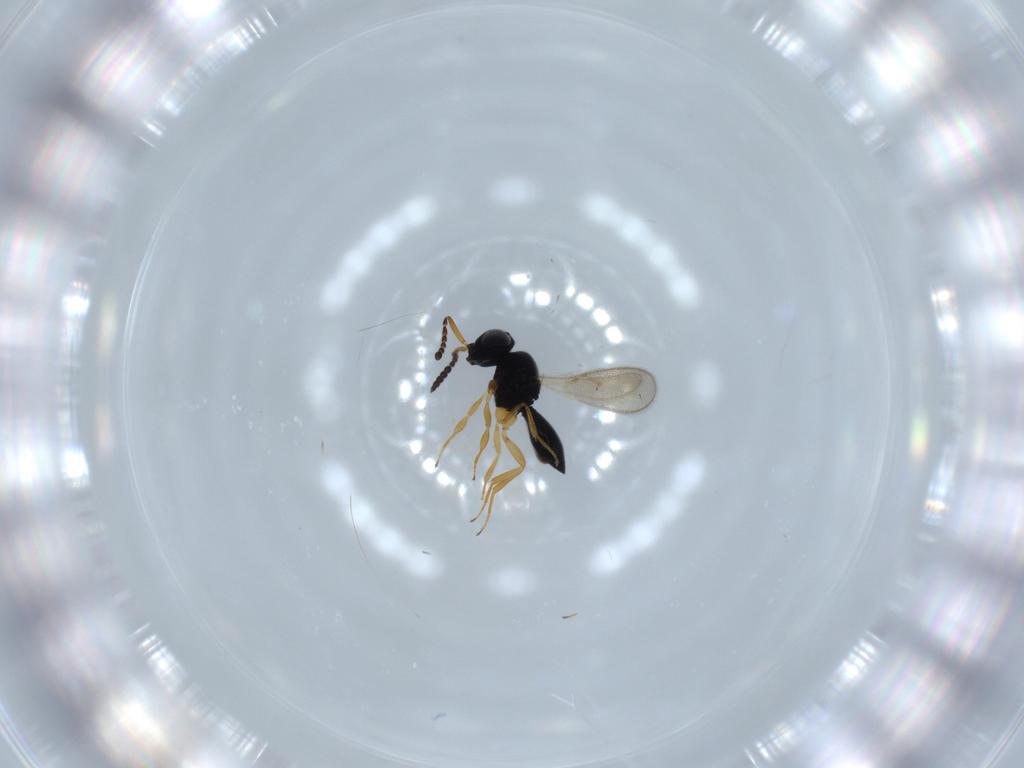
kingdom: Animalia
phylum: Arthropoda
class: Insecta
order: Hymenoptera
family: Scelionidae
